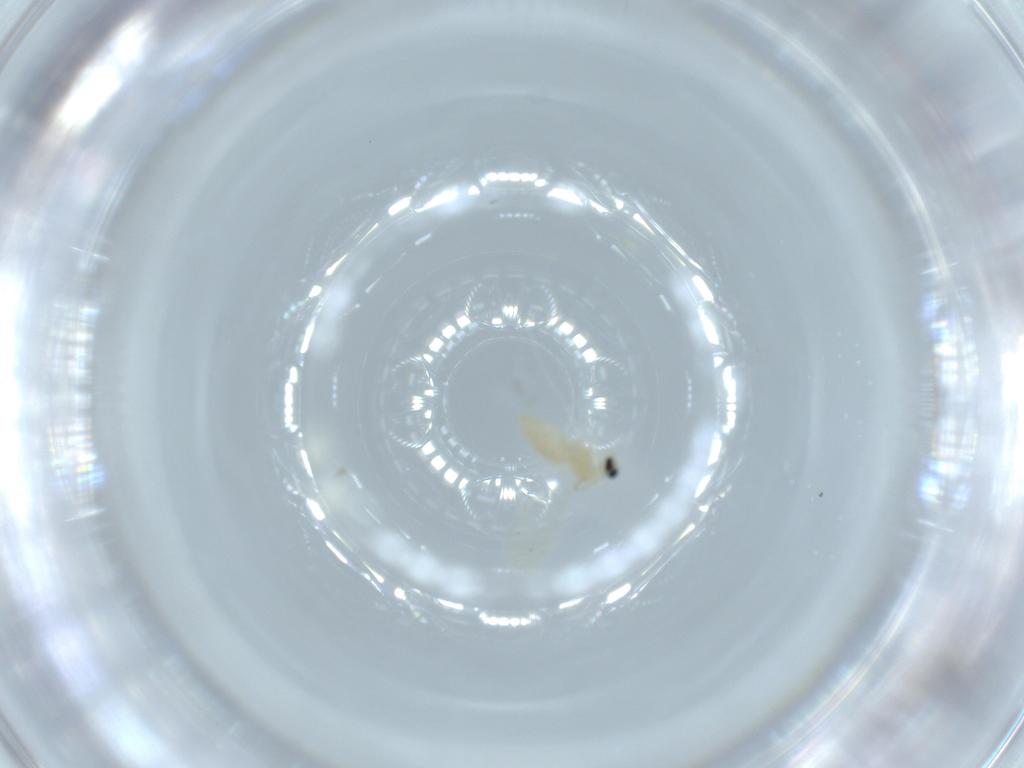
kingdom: Animalia
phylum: Arthropoda
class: Insecta
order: Diptera
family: Cecidomyiidae
